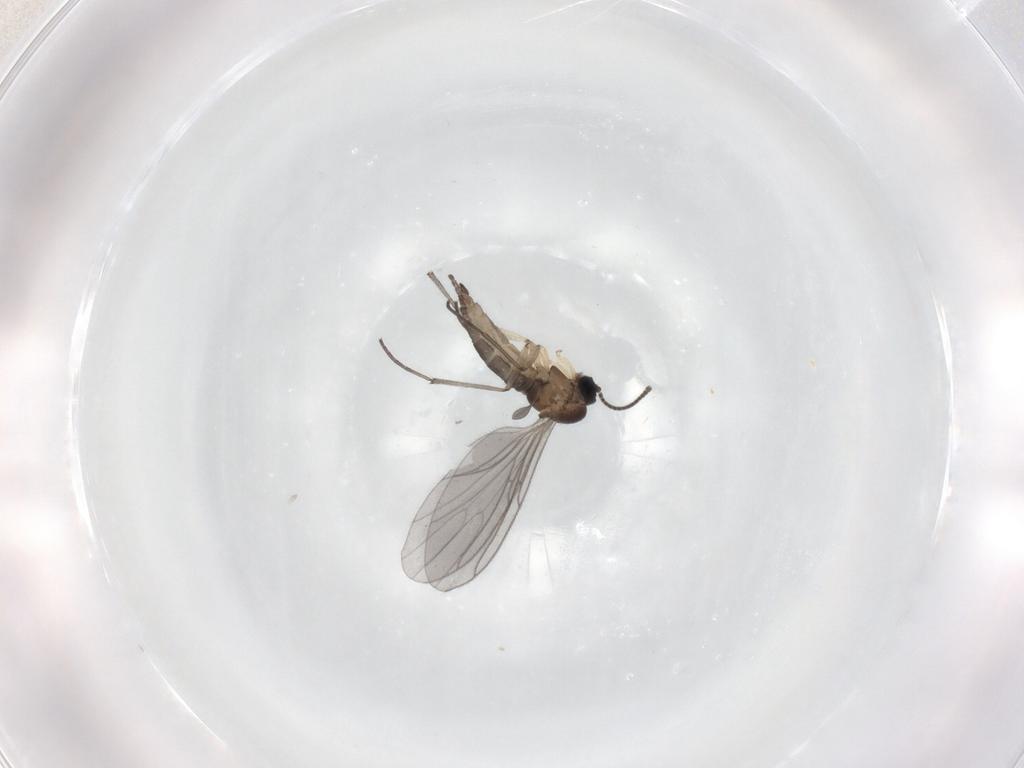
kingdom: Animalia
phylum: Arthropoda
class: Insecta
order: Diptera
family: Sciaridae
